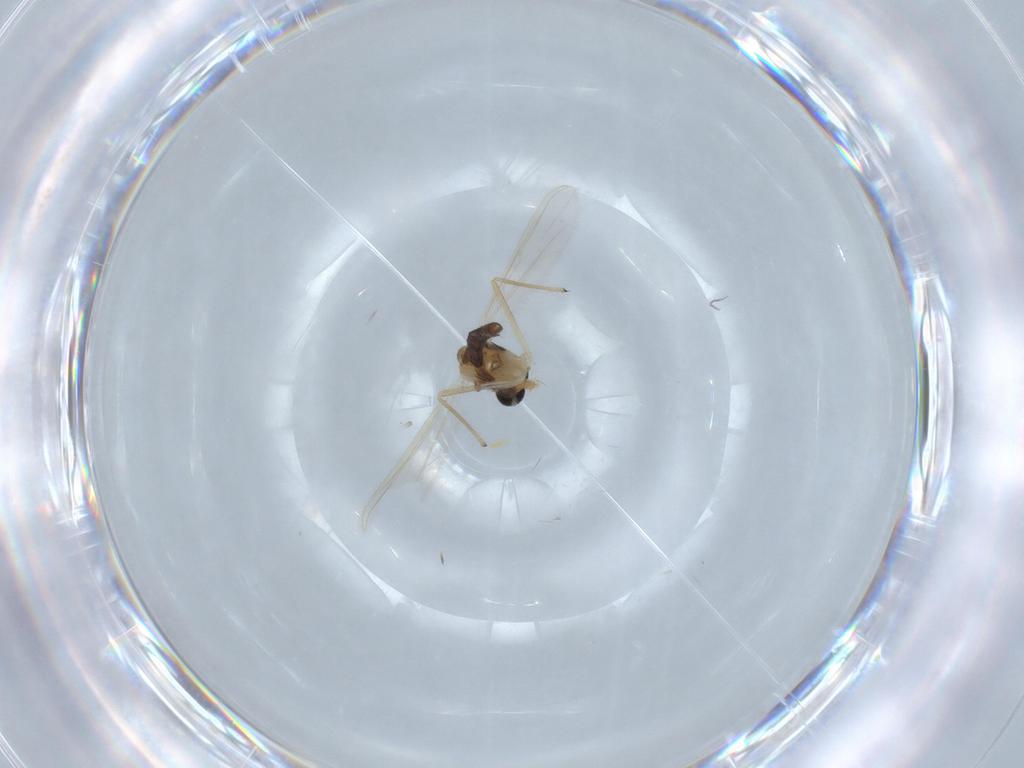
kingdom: Animalia
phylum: Arthropoda
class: Insecta
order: Diptera
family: Chironomidae
